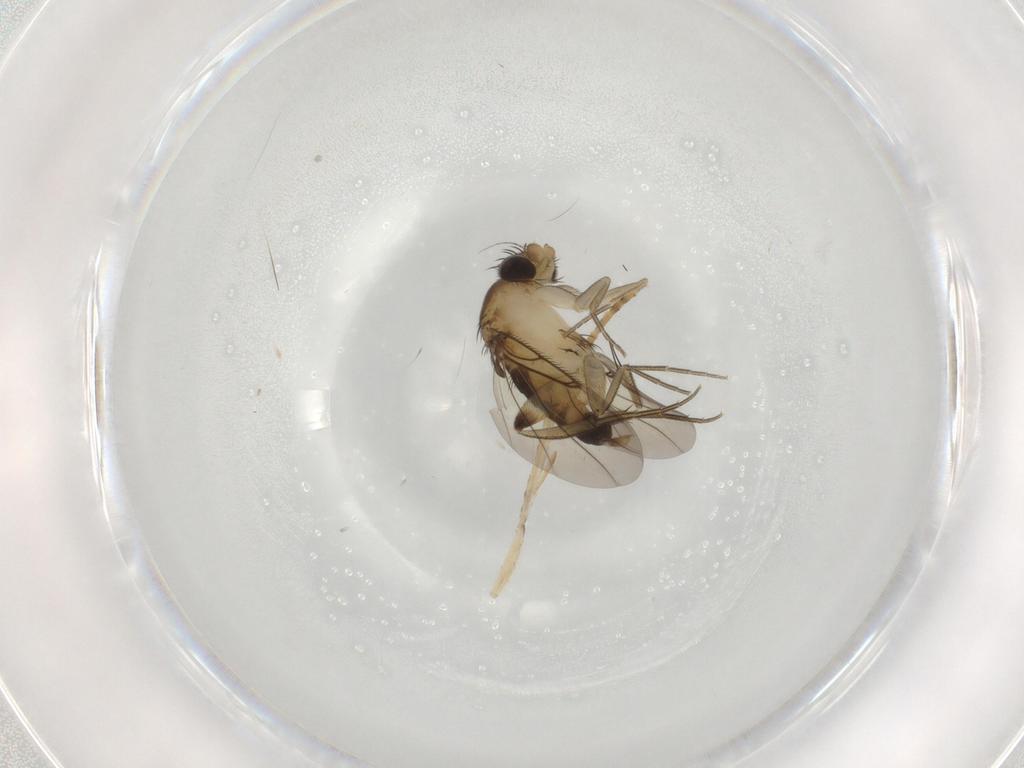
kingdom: Animalia
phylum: Arthropoda
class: Insecta
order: Diptera
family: Phoridae
